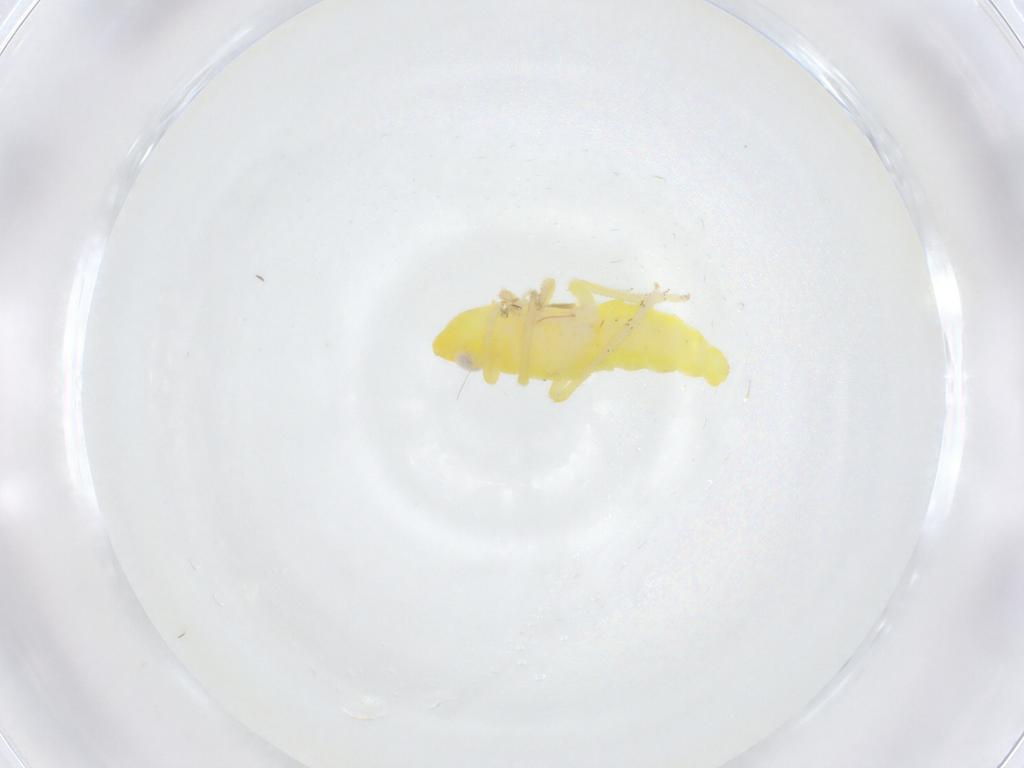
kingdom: Animalia
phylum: Arthropoda
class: Insecta
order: Hemiptera
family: Tropiduchidae
